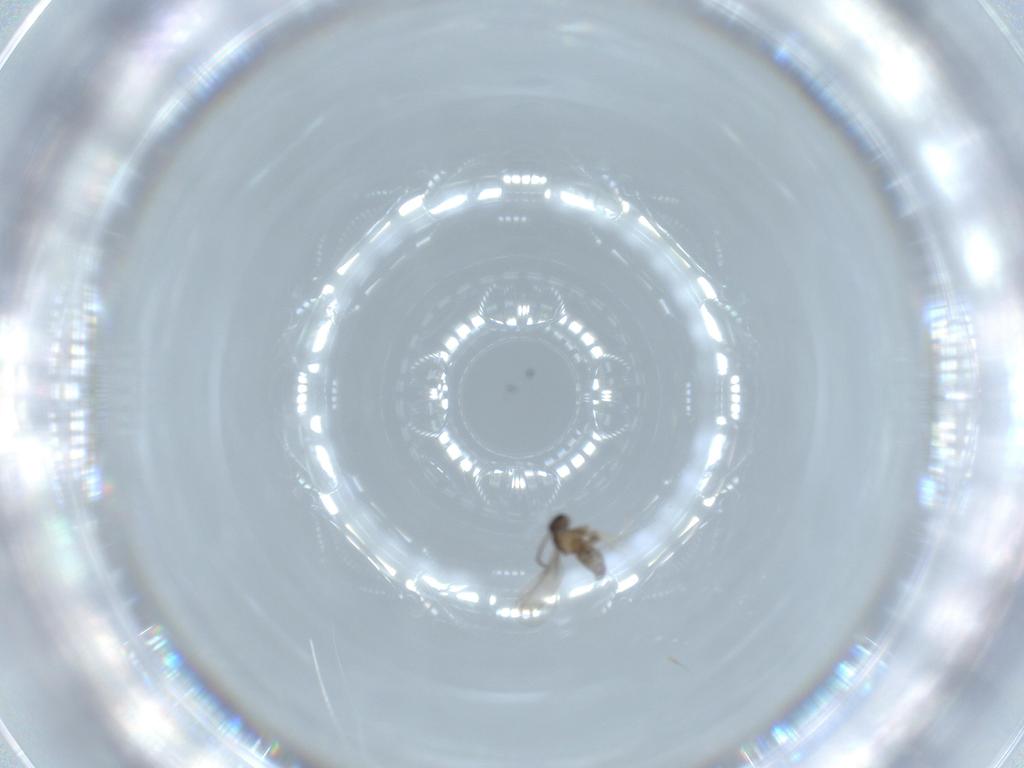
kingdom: Animalia
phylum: Arthropoda
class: Insecta
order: Diptera
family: Cecidomyiidae
